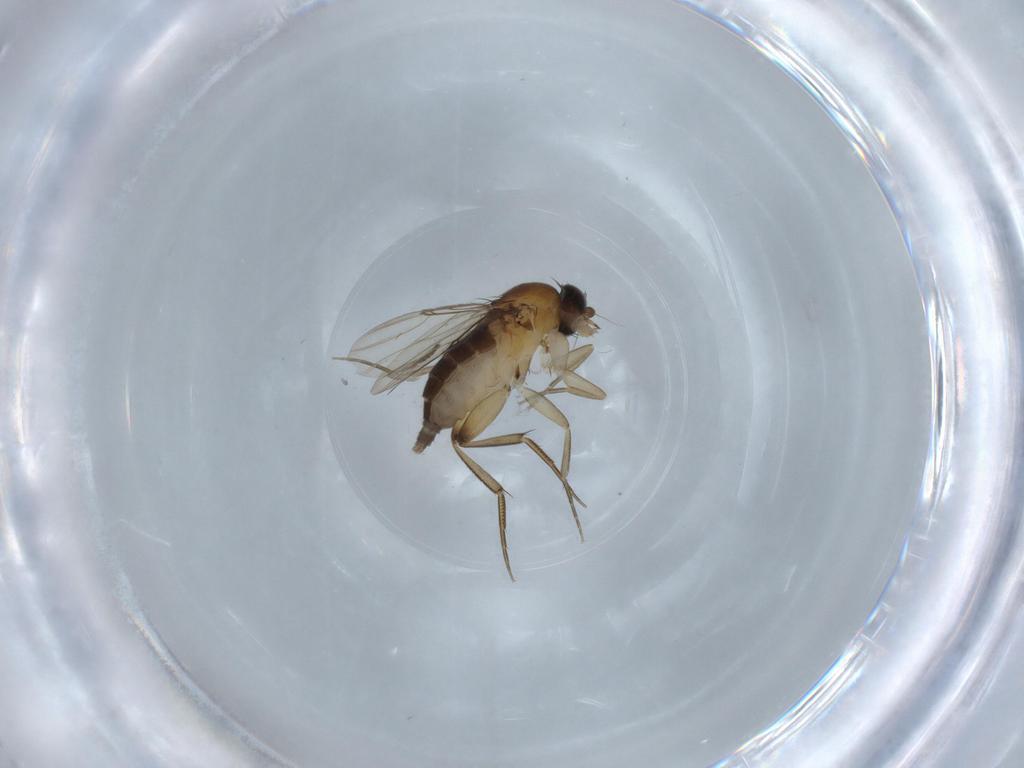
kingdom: Animalia
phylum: Arthropoda
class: Insecta
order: Diptera
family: Phoridae
